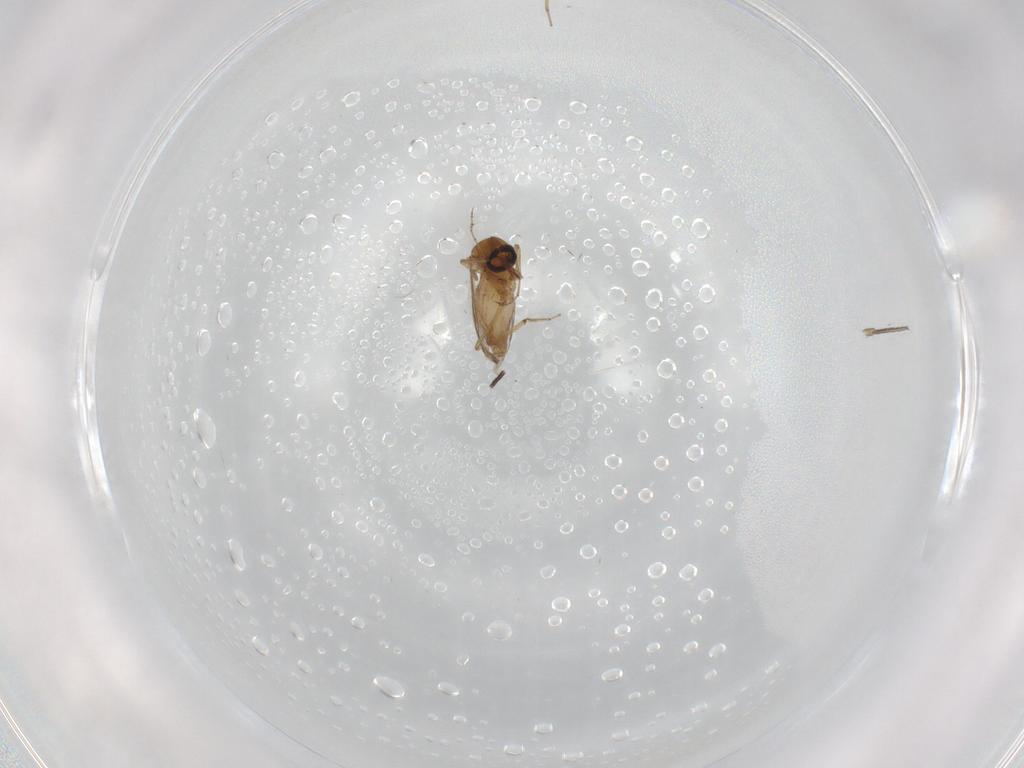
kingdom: Animalia
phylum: Arthropoda
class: Insecta
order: Diptera
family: Phoridae
